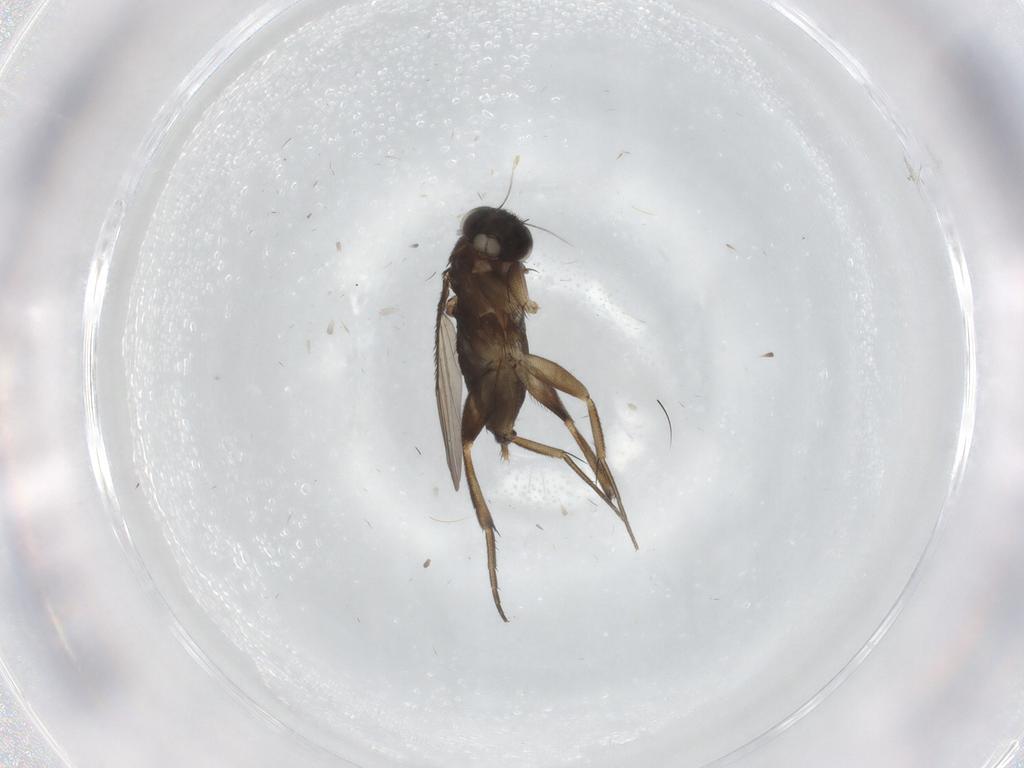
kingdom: Animalia
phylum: Arthropoda
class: Insecta
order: Diptera
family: Phoridae
